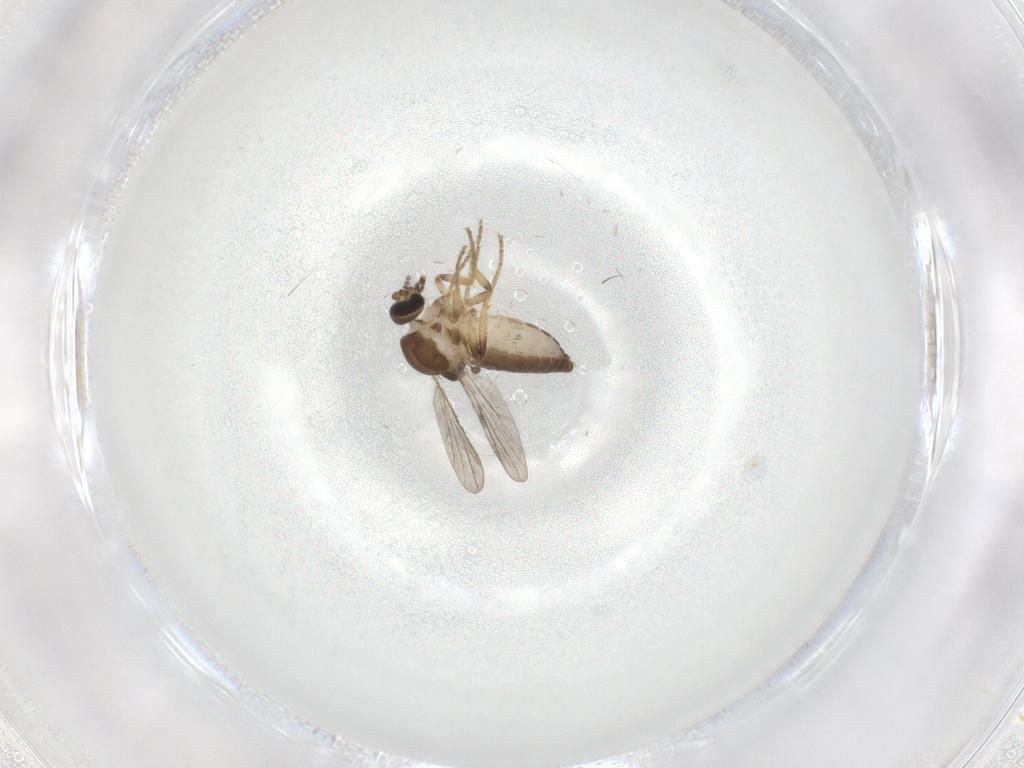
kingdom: Animalia
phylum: Arthropoda
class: Insecta
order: Diptera
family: Ceratopogonidae
